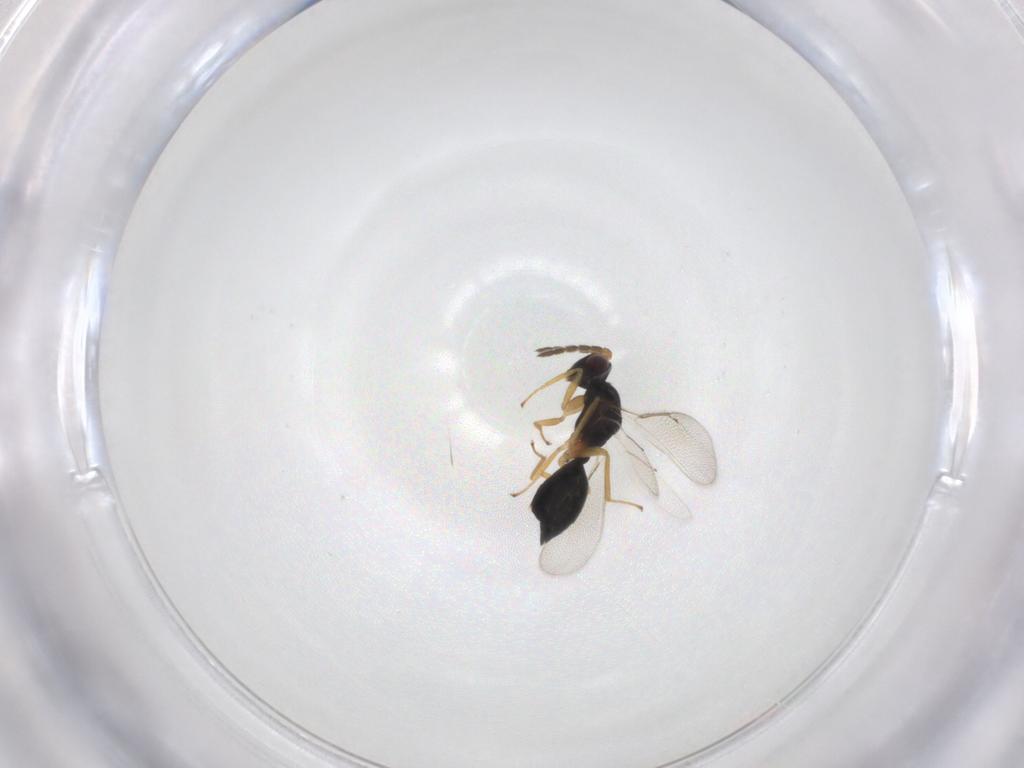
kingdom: Animalia
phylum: Arthropoda
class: Insecta
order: Hymenoptera
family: Eulophidae
